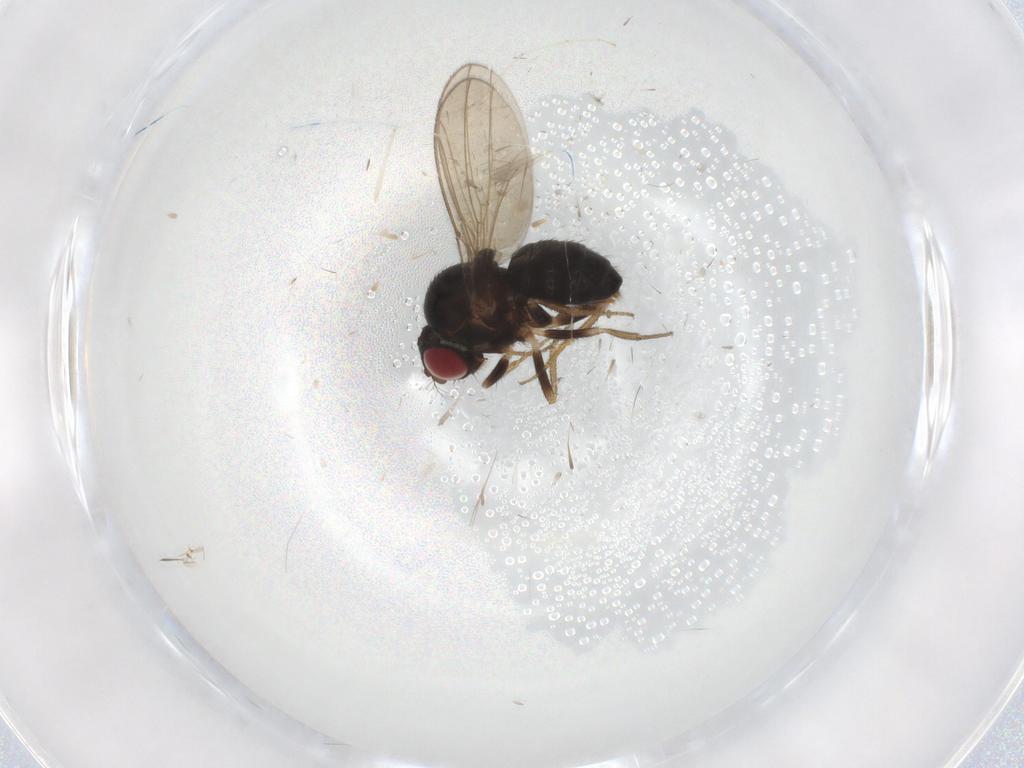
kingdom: Animalia
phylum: Arthropoda
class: Insecta
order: Diptera
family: Drosophilidae
